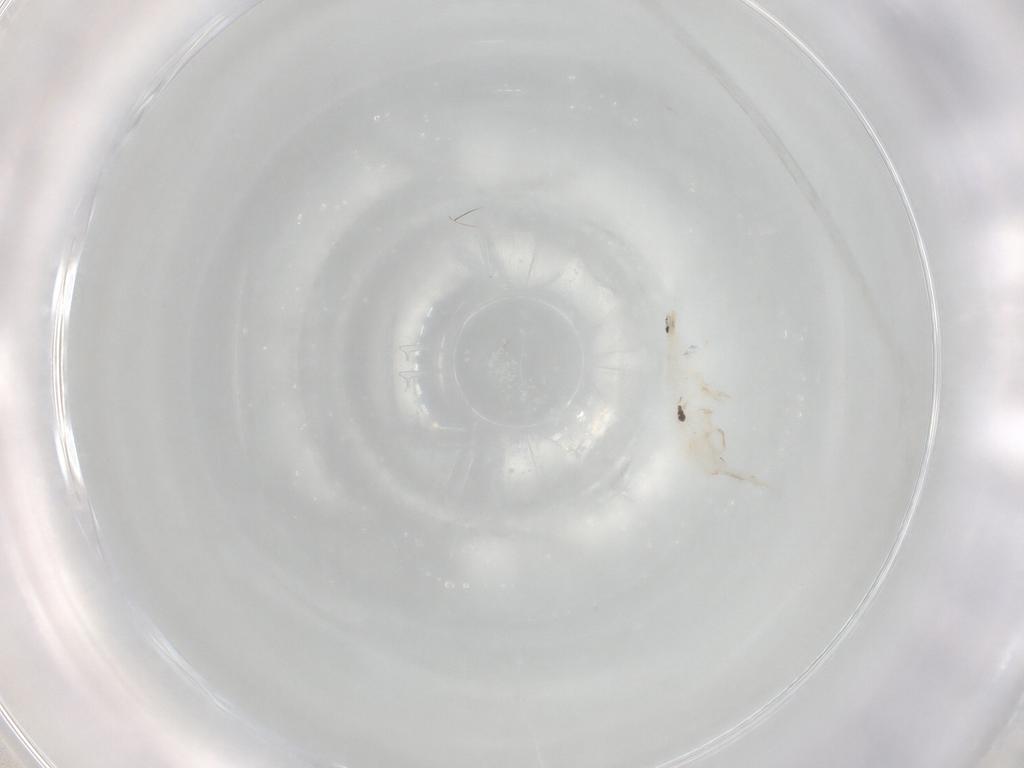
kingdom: Animalia
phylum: Arthropoda
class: Collembola
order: Entomobryomorpha
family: Entomobryidae
